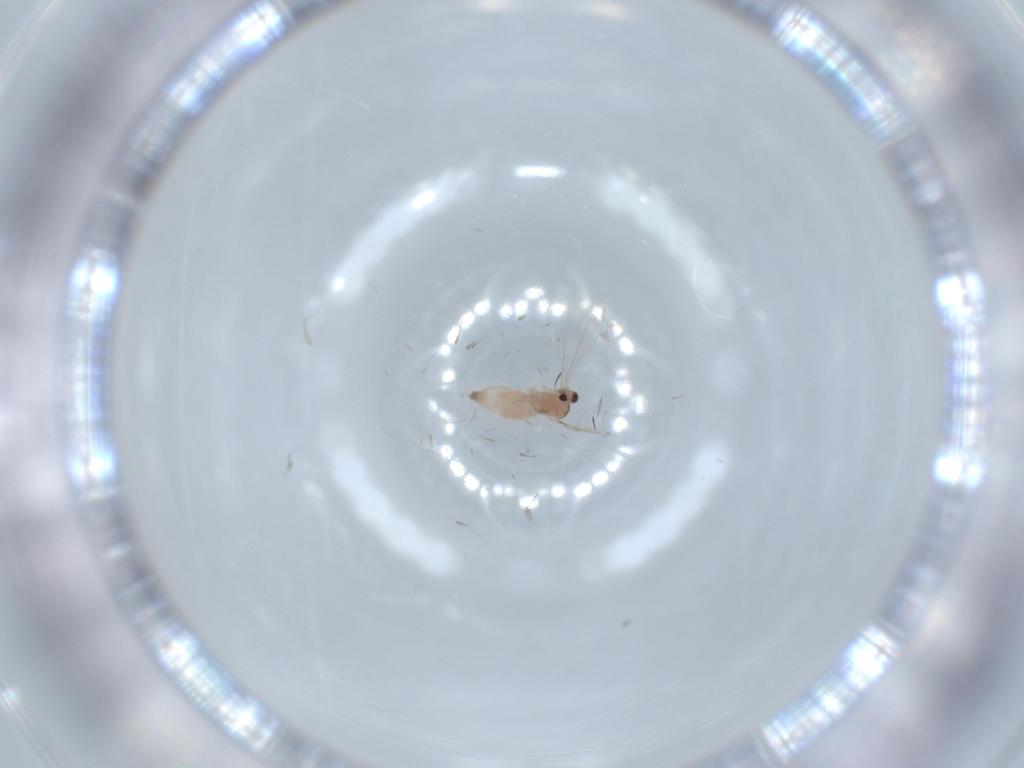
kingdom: Animalia
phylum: Arthropoda
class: Insecta
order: Diptera
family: Cecidomyiidae
